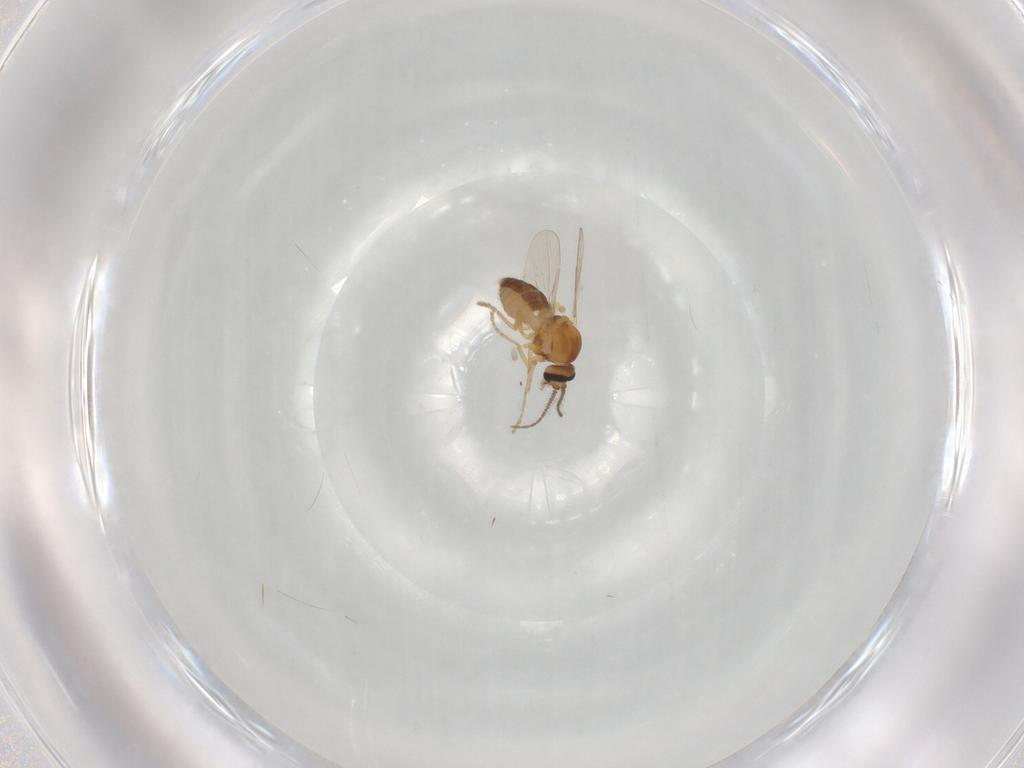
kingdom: Animalia
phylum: Arthropoda
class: Insecta
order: Diptera
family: Ceratopogonidae
